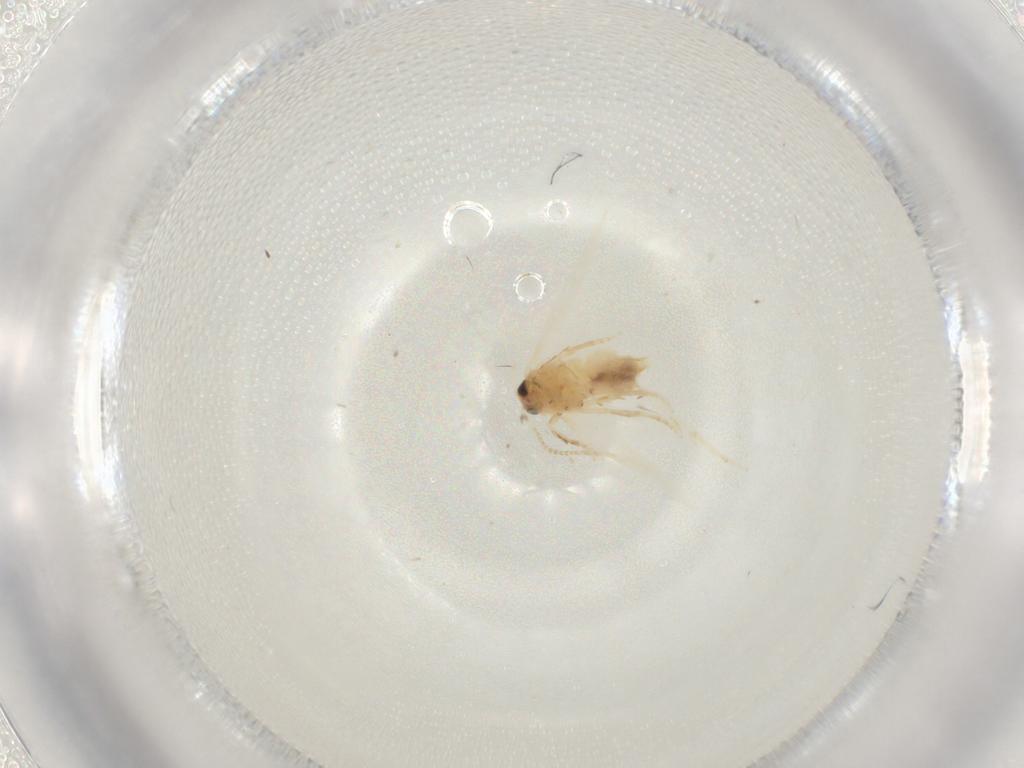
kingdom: Animalia
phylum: Arthropoda
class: Insecta
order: Lepidoptera
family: Nepticulidae
